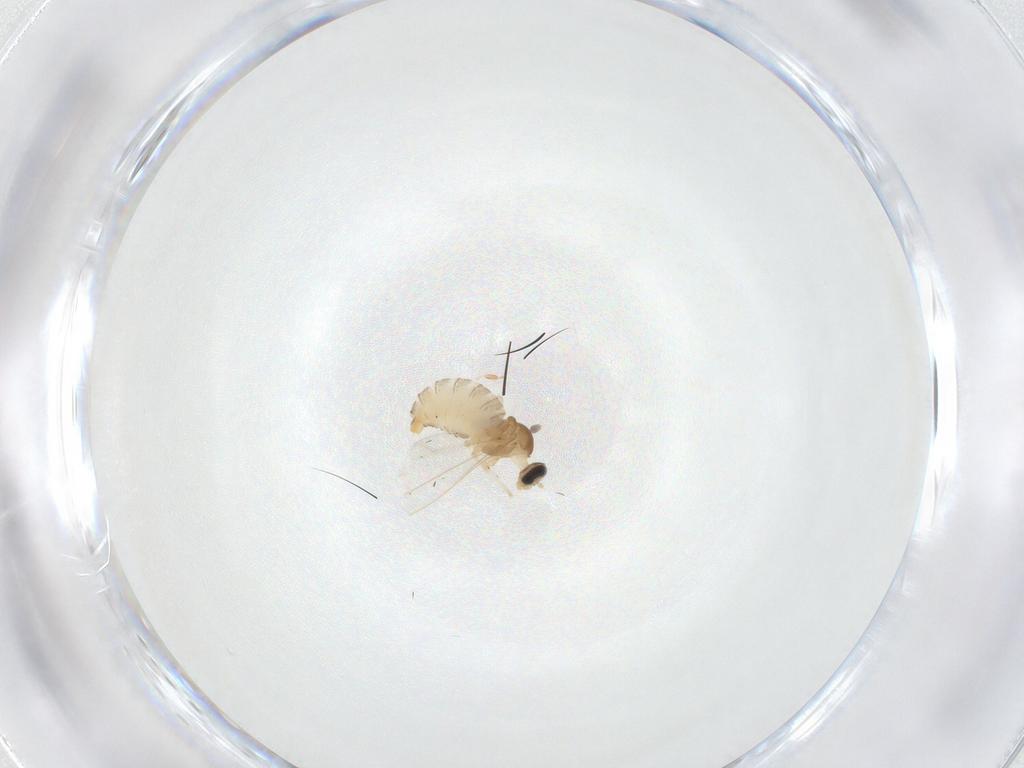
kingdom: Animalia
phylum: Arthropoda
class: Insecta
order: Diptera
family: Cecidomyiidae
